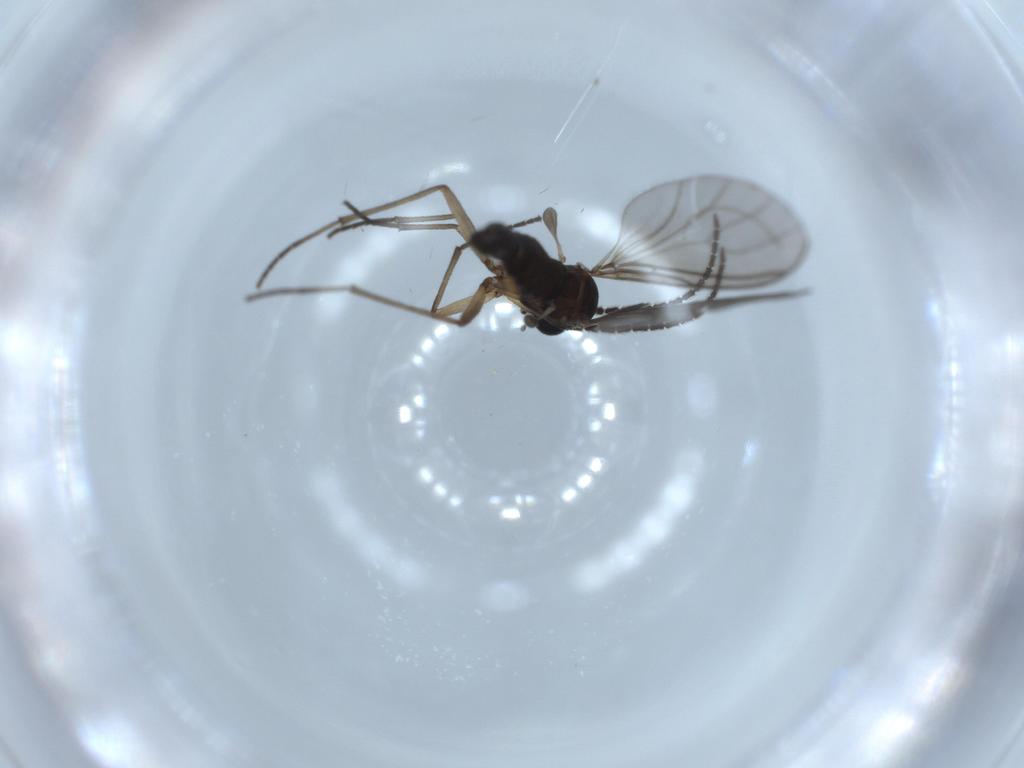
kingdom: Animalia
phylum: Arthropoda
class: Insecta
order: Diptera
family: Sciaridae
